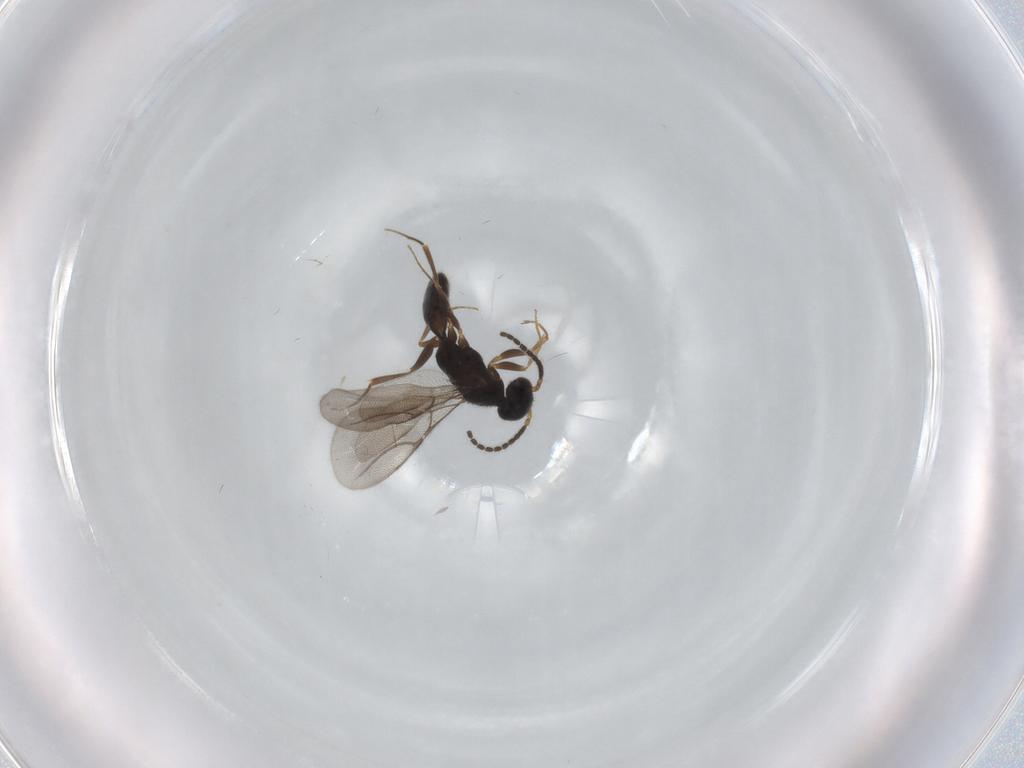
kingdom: Animalia
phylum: Arthropoda
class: Insecta
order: Hymenoptera
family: Bethylidae
